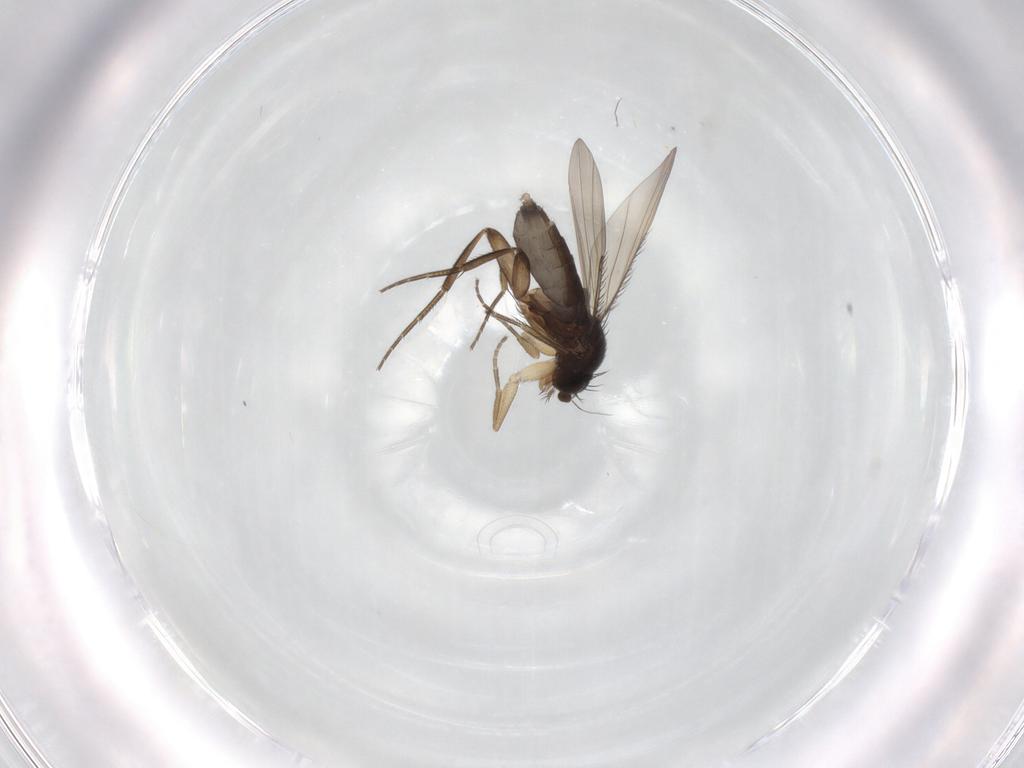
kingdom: Animalia
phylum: Arthropoda
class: Insecta
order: Diptera
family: Phoridae
